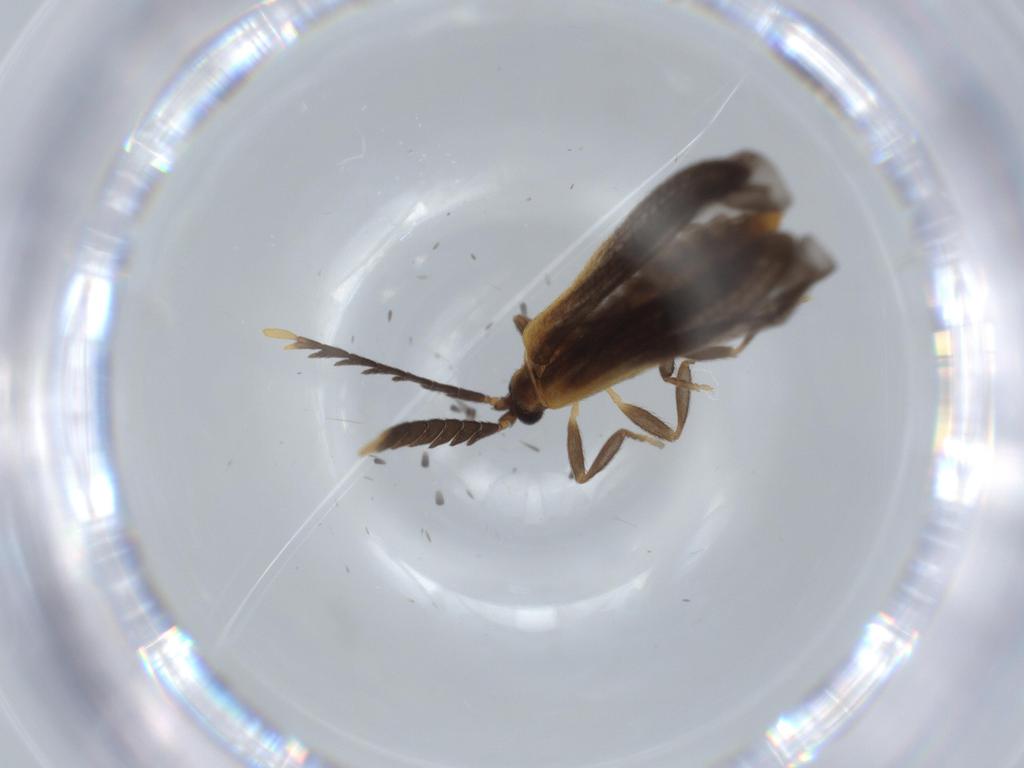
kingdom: Animalia
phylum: Arthropoda
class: Insecta
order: Coleoptera
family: Lycidae
